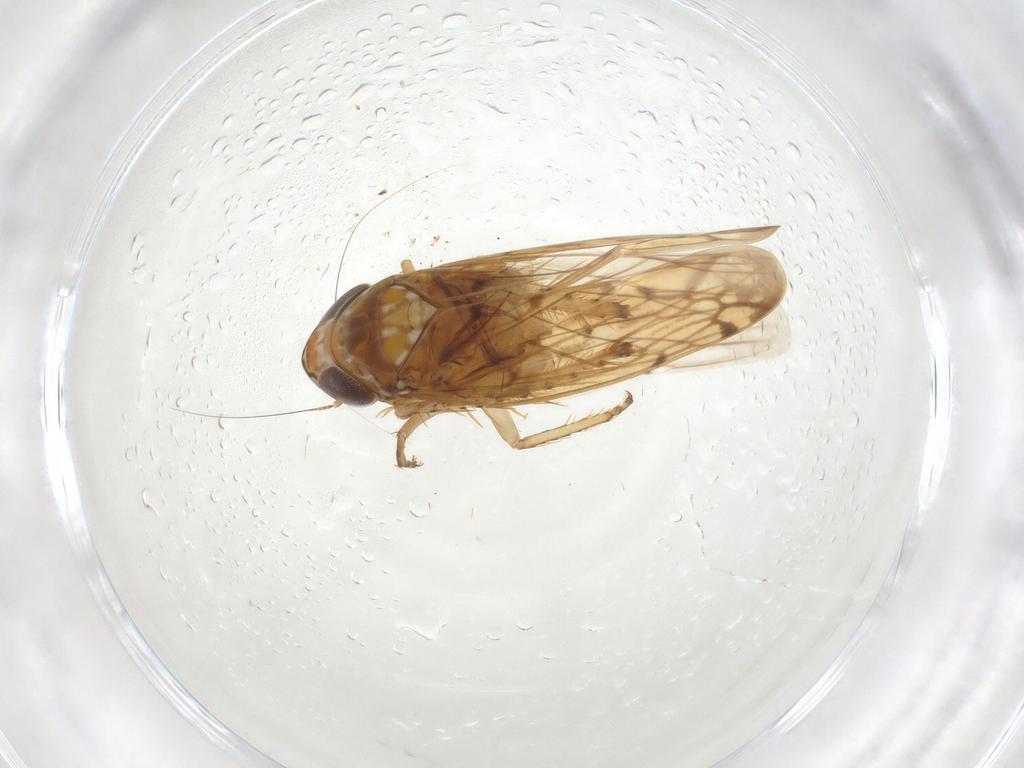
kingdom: Animalia
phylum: Arthropoda
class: Insecta
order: Hemiptera
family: Cicadellidae
